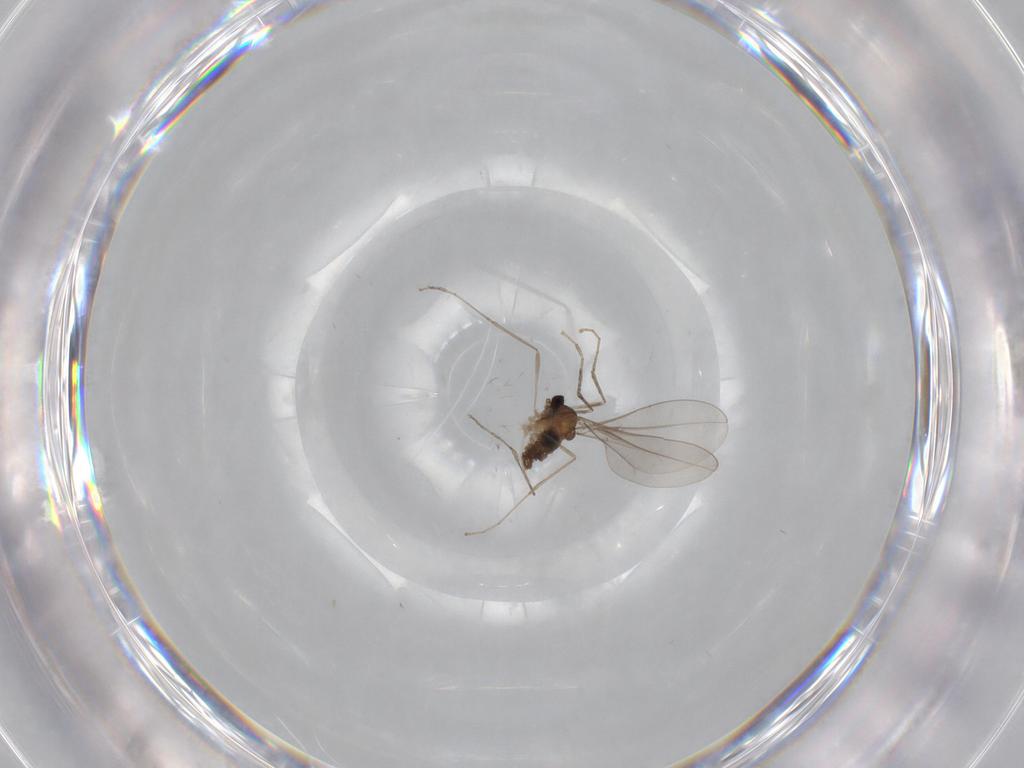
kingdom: Animalia
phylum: Arthropoda
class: Insecta
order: Diptera
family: Cecidomyiidae
